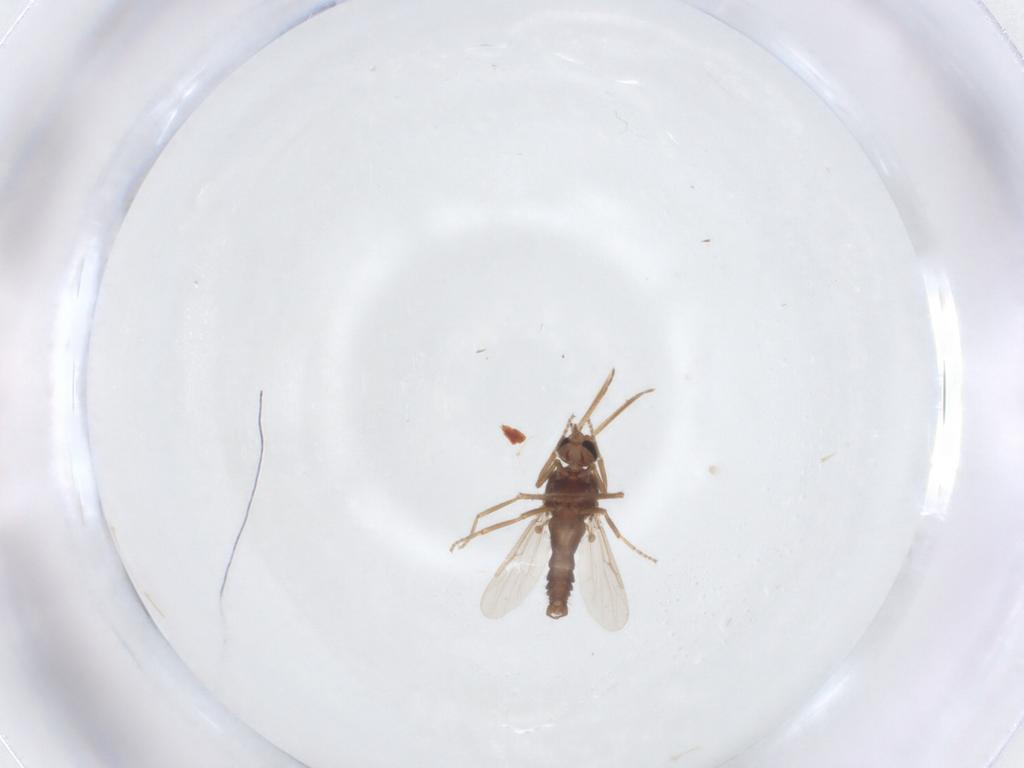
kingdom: Animalia
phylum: Arthropoda
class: Insecta
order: Diptera
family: Ceratopogonidae
